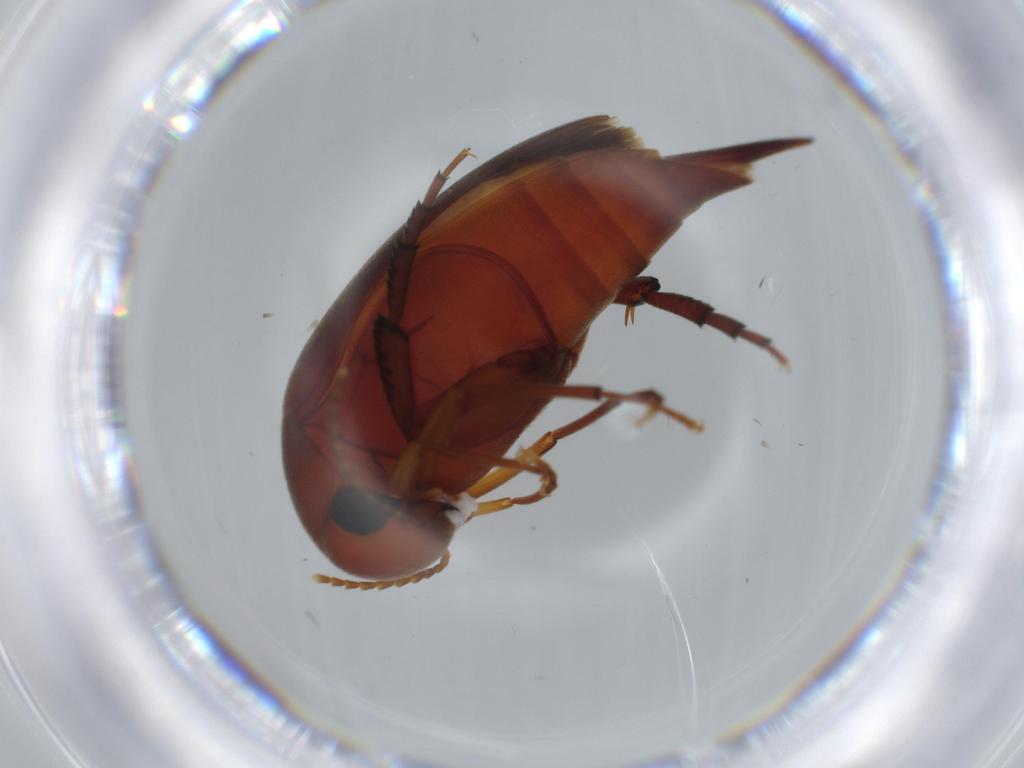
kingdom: Animalia
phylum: Arthropoda
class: Insecta
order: Coleoptera
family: Mordellidae
